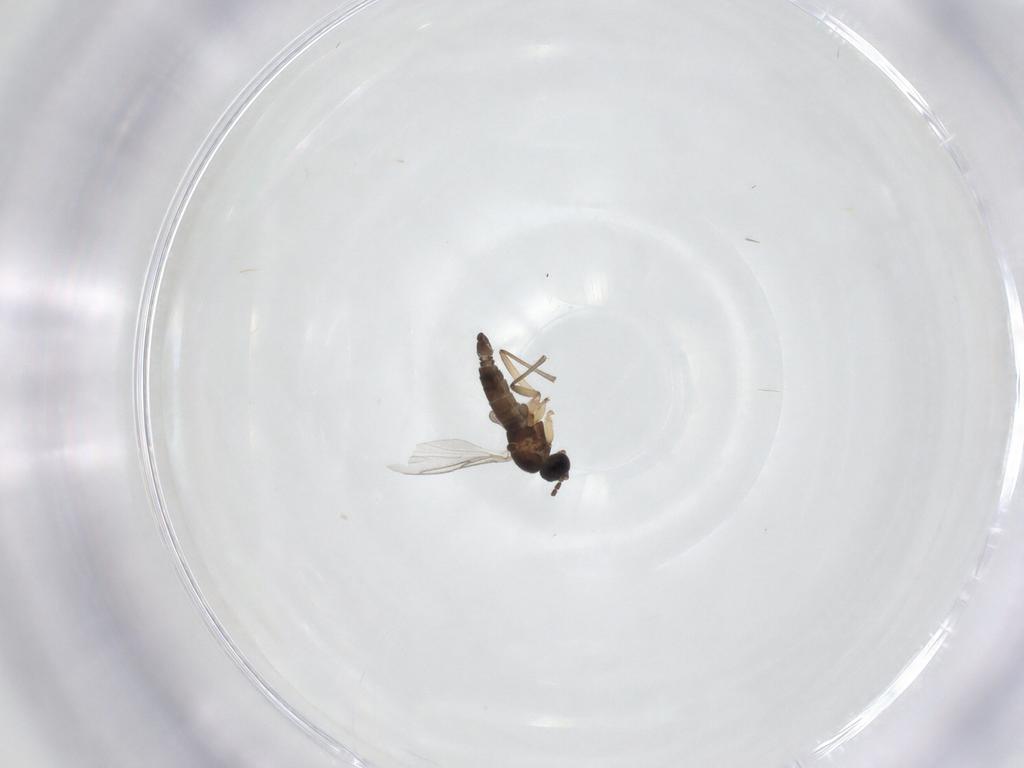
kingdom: Animalia
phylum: Arthropoda
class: Insecta
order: Diptera
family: Sciaridae
